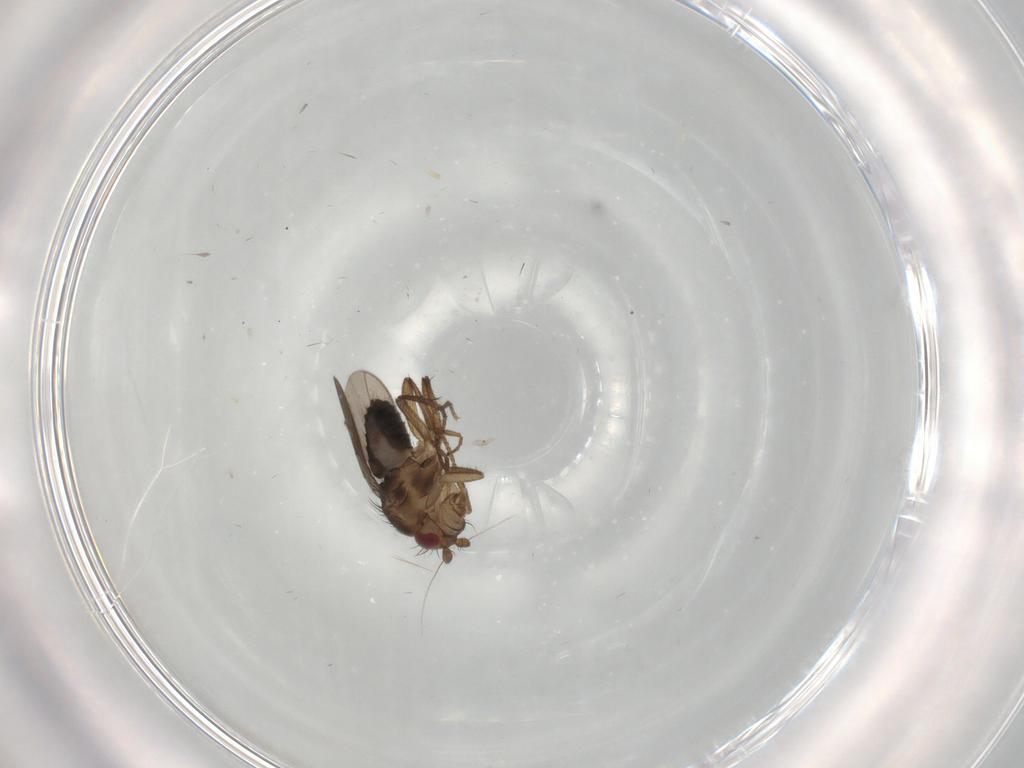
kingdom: Animalia
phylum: Arthropoda
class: Insecta
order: Diptera
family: Sphaeroceridae
